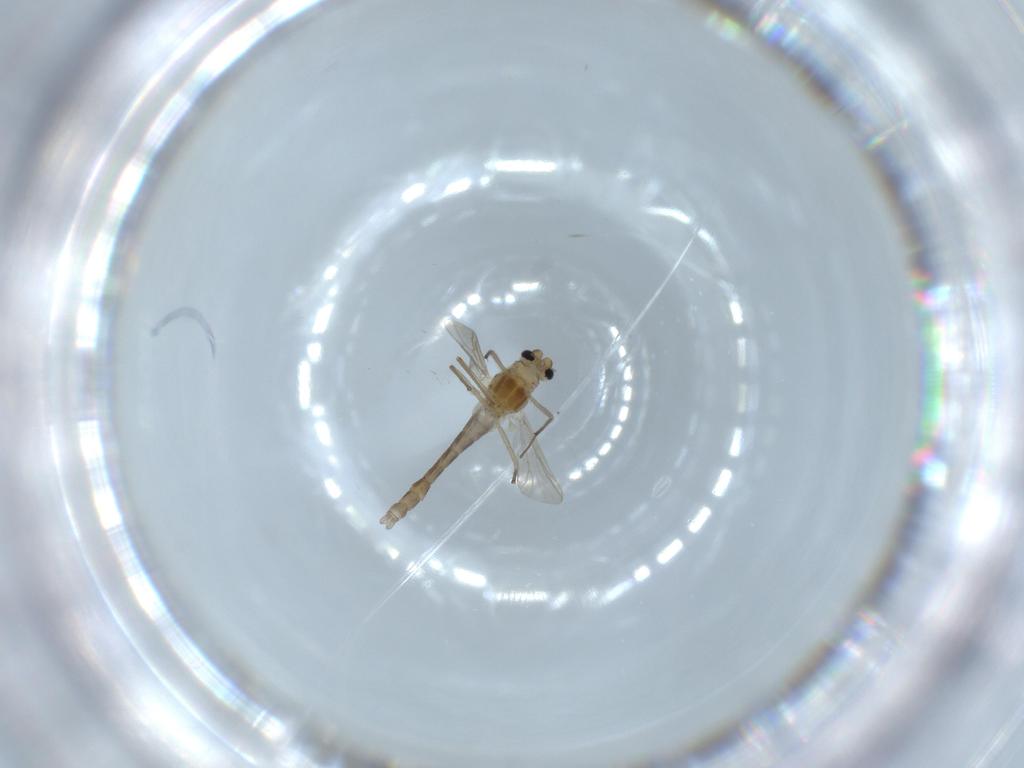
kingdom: Animalia
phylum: Arthropoda
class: Insecta
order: Diptera
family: Chironomidae
